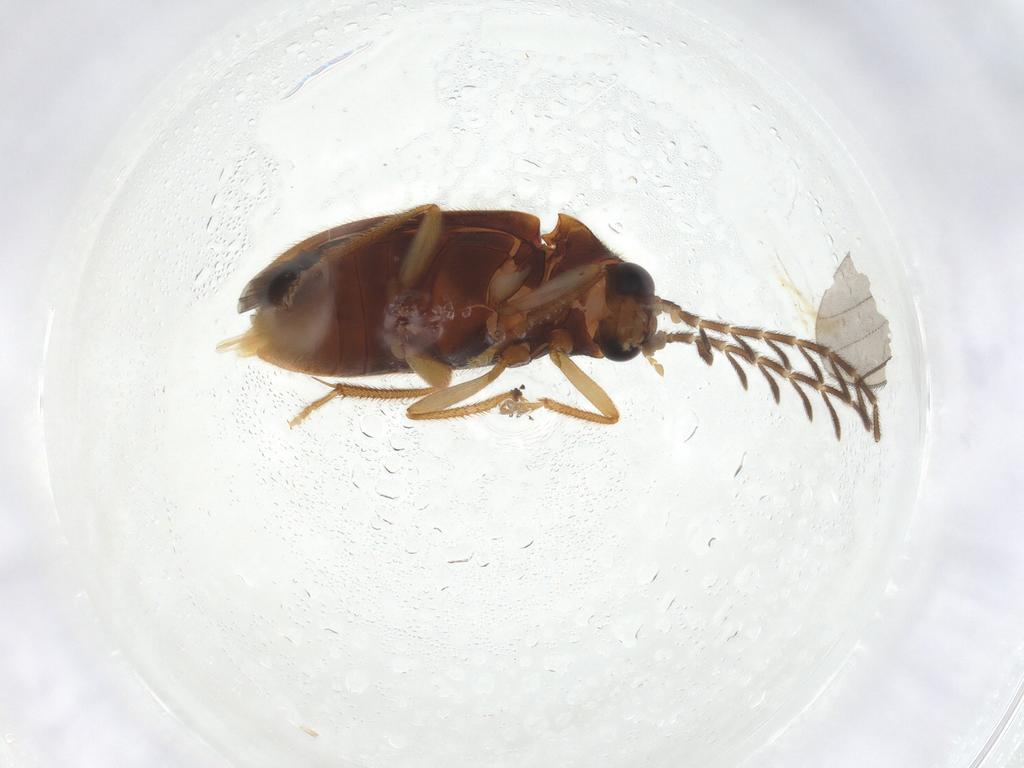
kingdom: Animalia
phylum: Arthropoda
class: Insecta
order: Coleoptera
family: Ptilodactylidae
